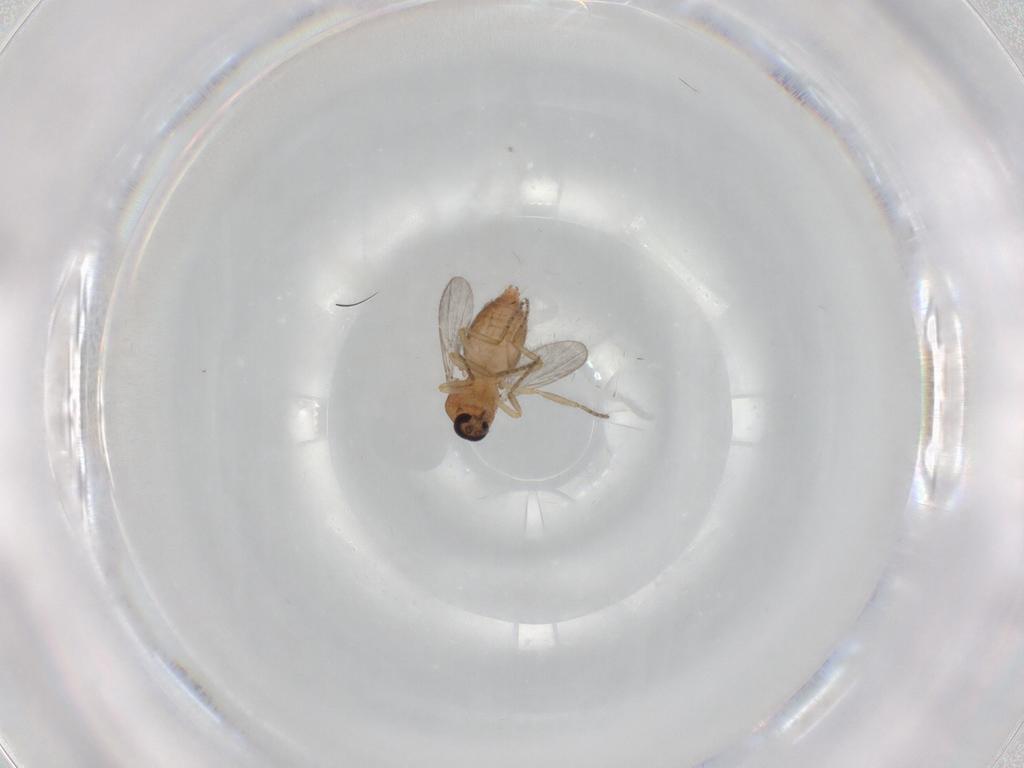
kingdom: Animalia
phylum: Arthropoda
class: Insecta
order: Diptera
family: Ceratopogonidae
